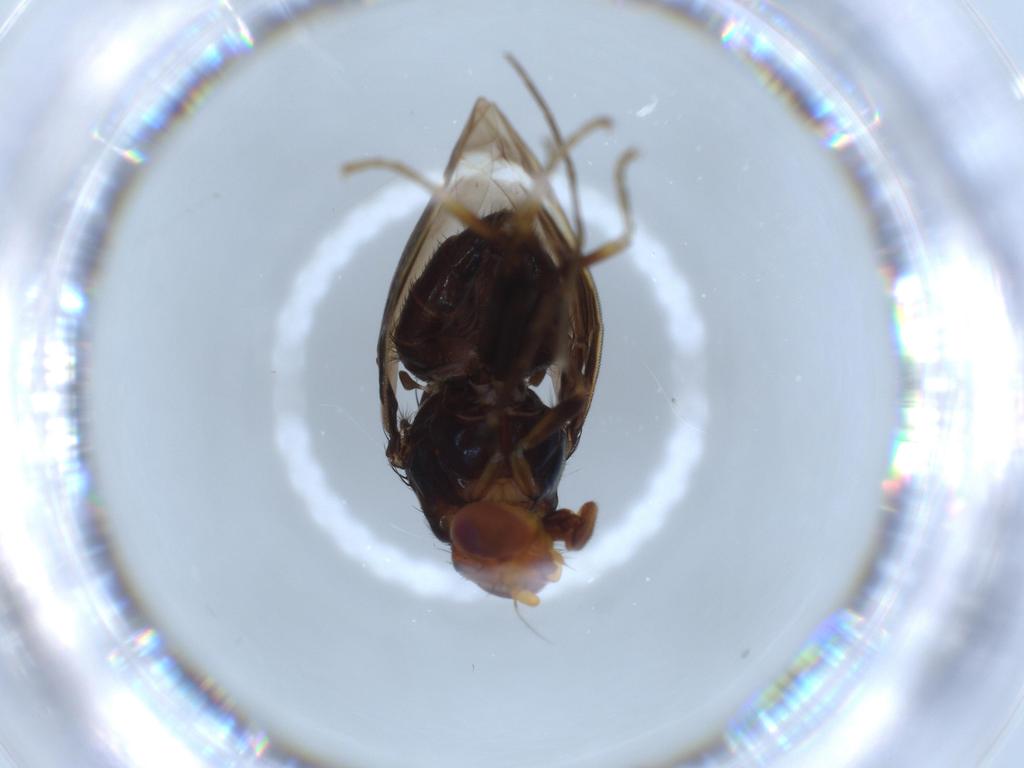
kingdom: Animalia
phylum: Arthropoda
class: Insecta
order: Diptera
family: Keroplatidae
